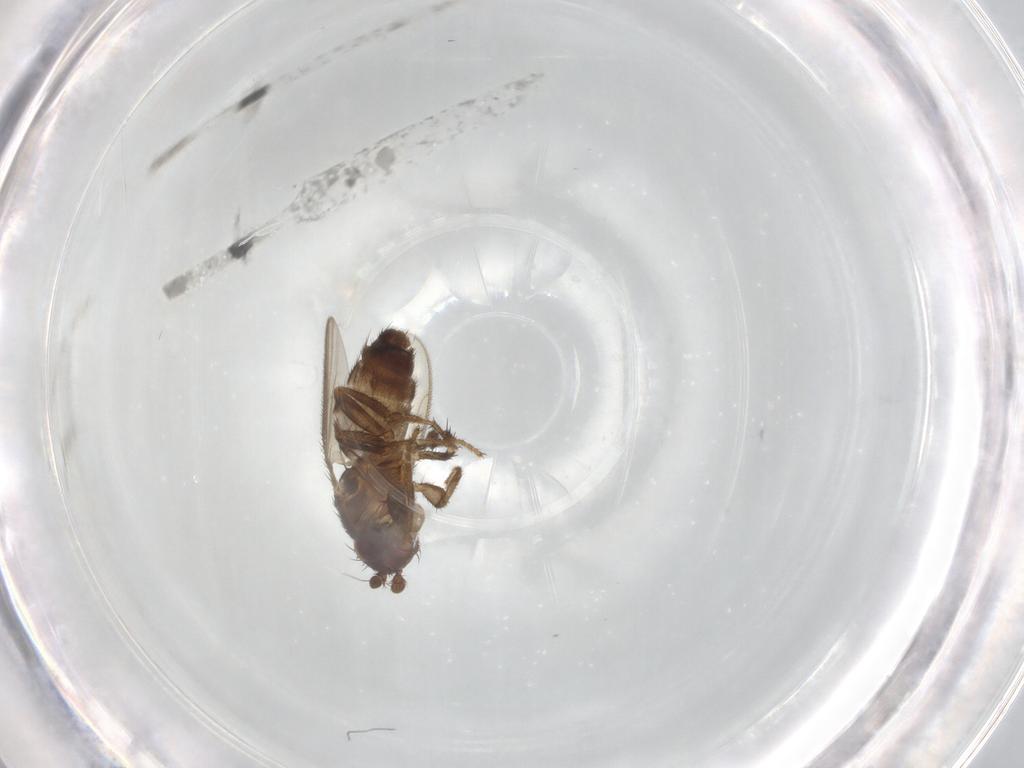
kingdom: Animalia
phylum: Arthropoda
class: Insecta
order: Diptera
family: Sphaeroceridae
